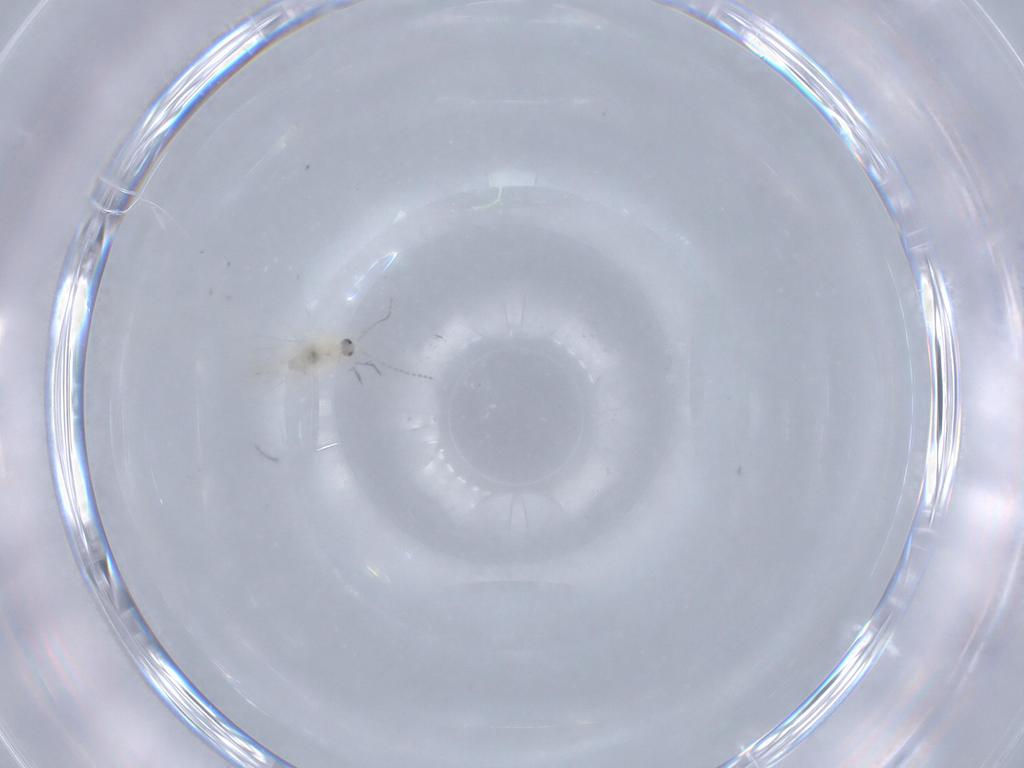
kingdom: Animalia
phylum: Arthropoda
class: Insecta
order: Diptera
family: Cecidomyiidae
